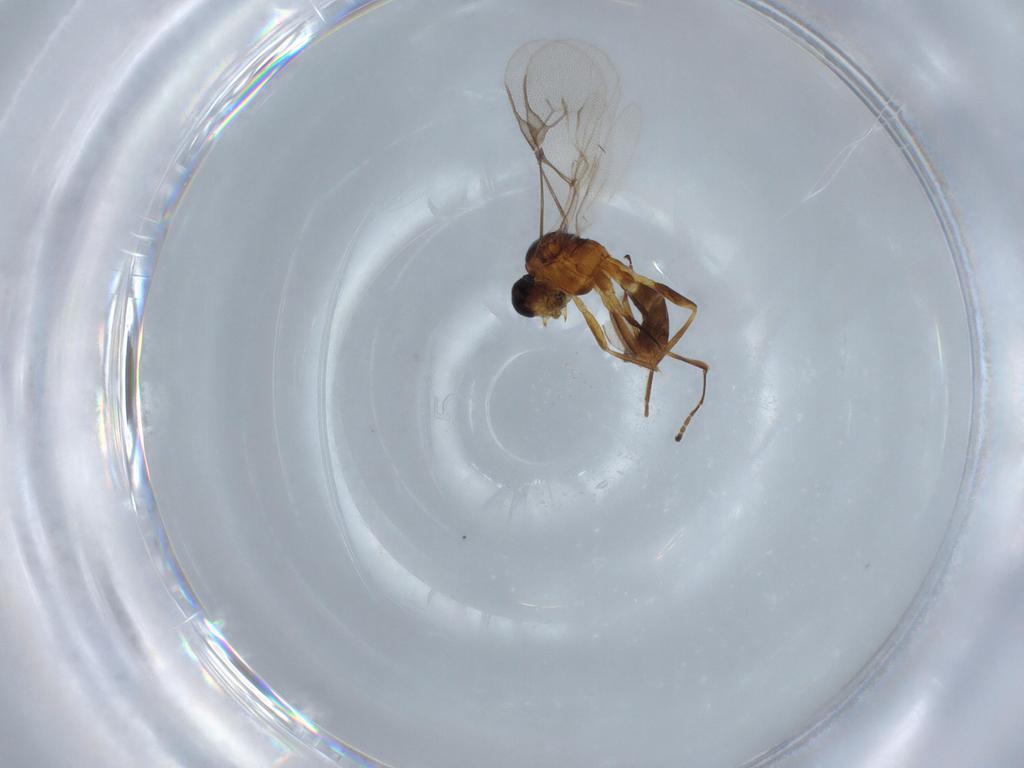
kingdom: Animalia
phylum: Arthropoda
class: Insecta
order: Hymenoptera
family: Braconidae
